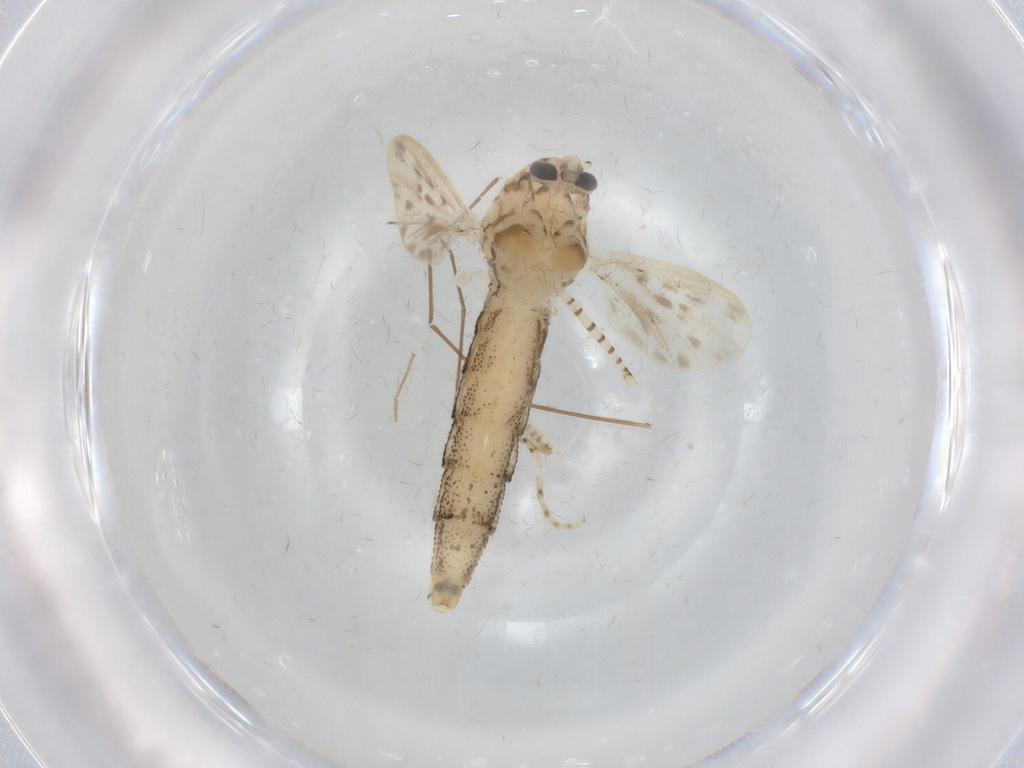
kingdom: Animalia
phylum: Arthropoda
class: Insecta
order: Diptera
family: Chaoboridae
